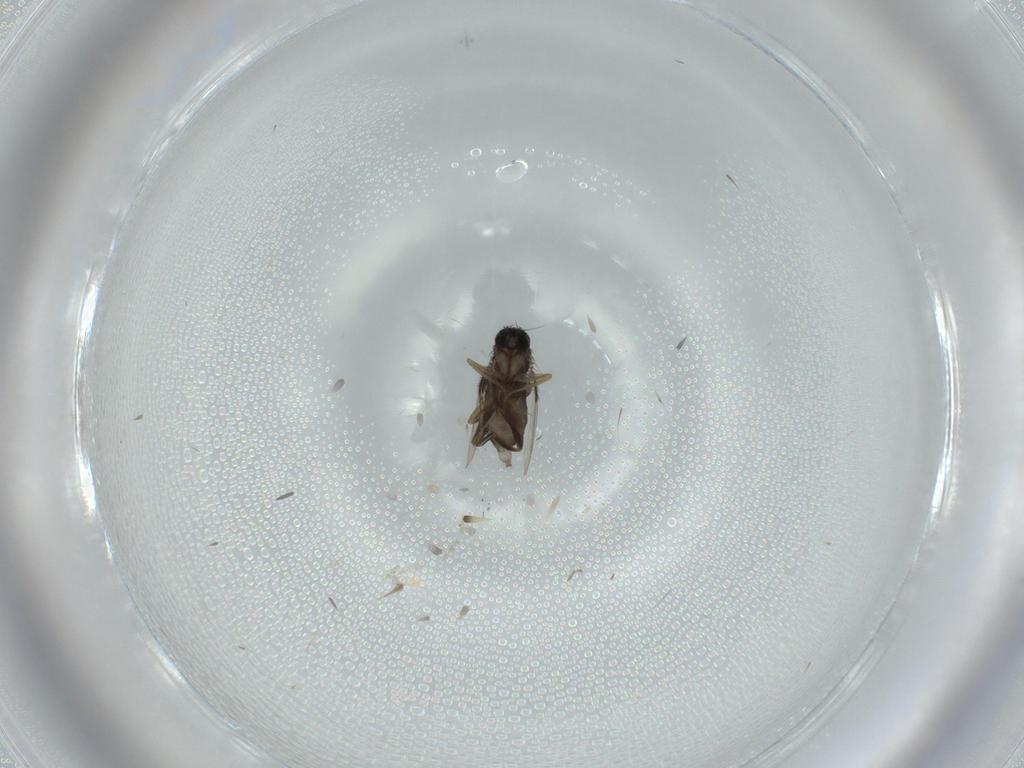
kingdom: Animalia
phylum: Arthropoda
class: Insecta
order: Diptera
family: Phoridae
